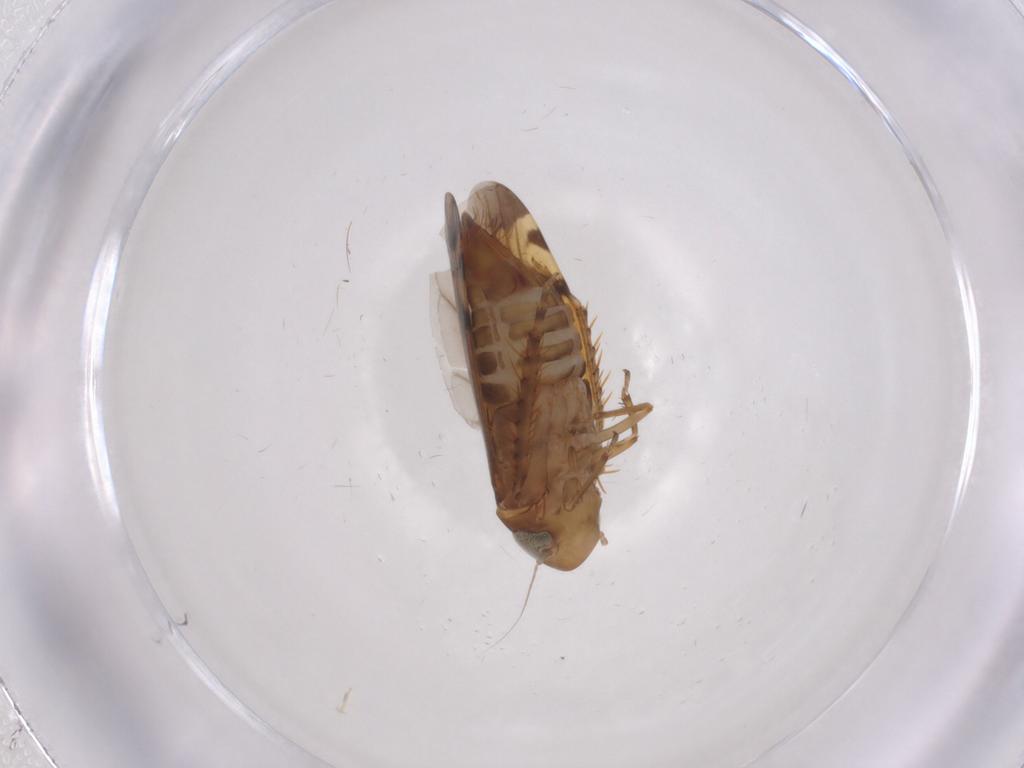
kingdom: Animalia
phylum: Arthropoda
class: Insecta
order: Hemiptera
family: Cicadellidae
